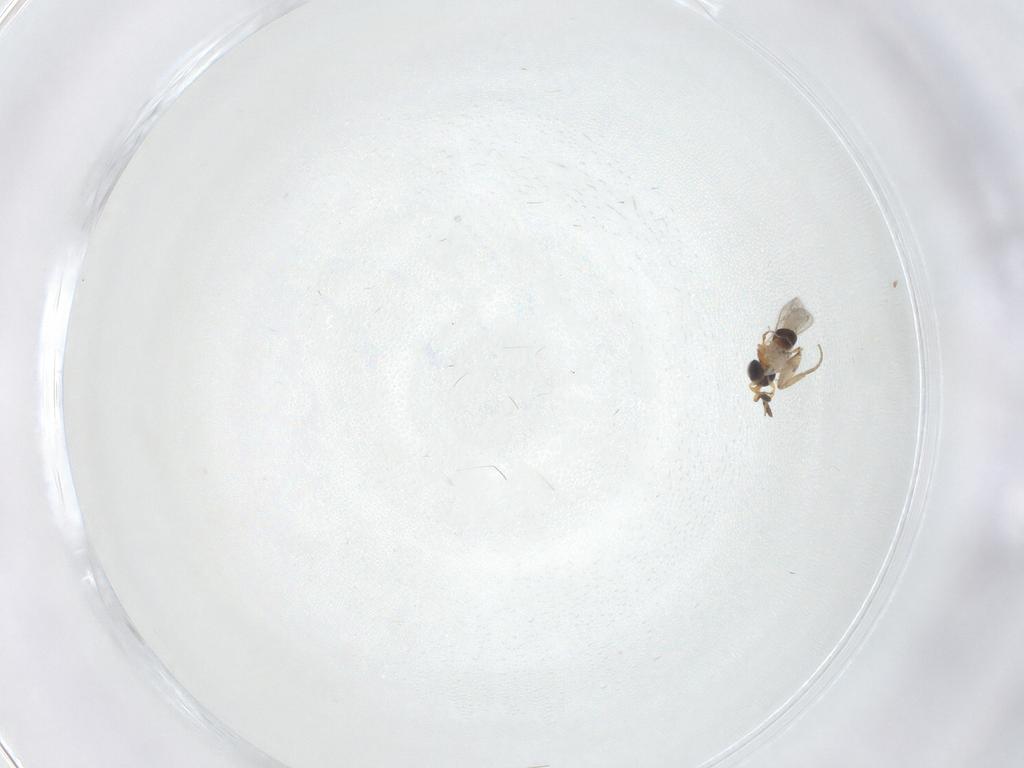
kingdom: Animalia
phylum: Arthropoda
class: Insecta
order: Hymenoptera
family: Scelionidae
